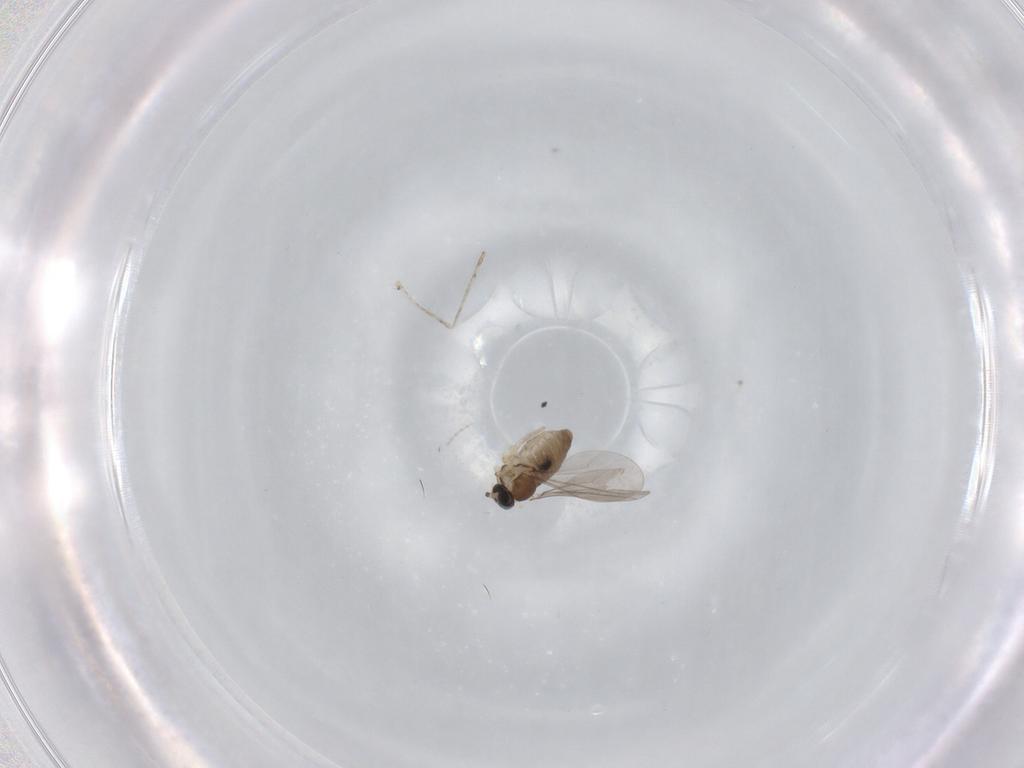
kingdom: Animalia
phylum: Arthropoda
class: Insecta
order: Diptera
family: Cecidomyiidae
